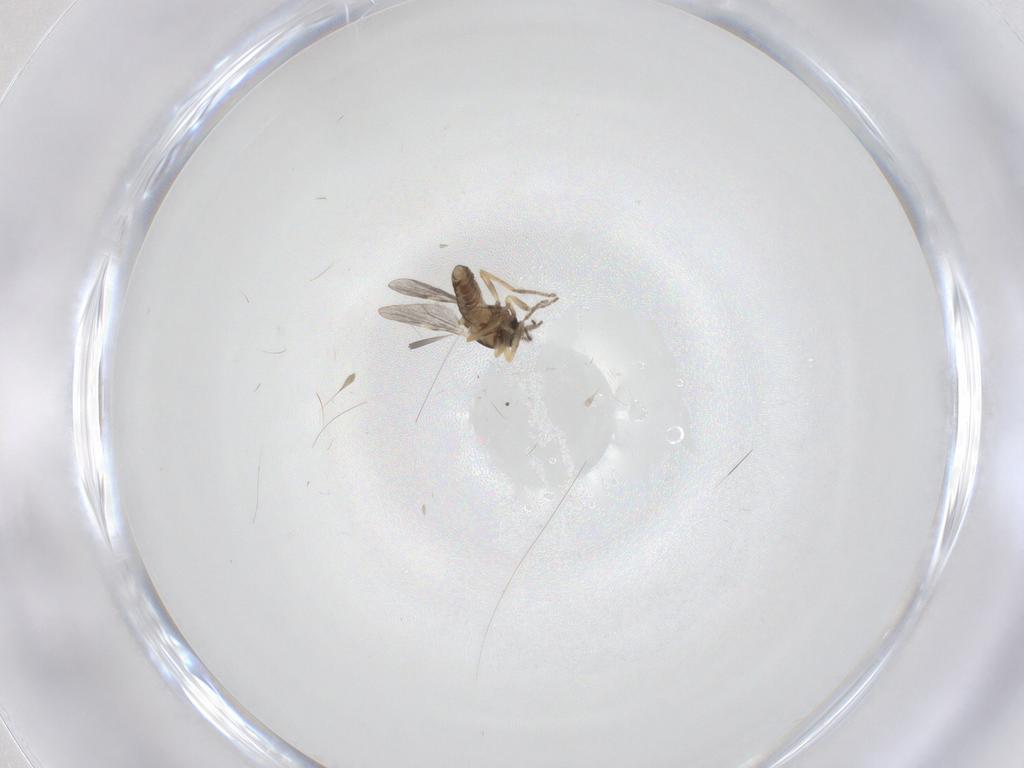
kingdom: Animalia
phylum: Arthropoda
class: Insecta
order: Diptera
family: Ceratopogonidae
